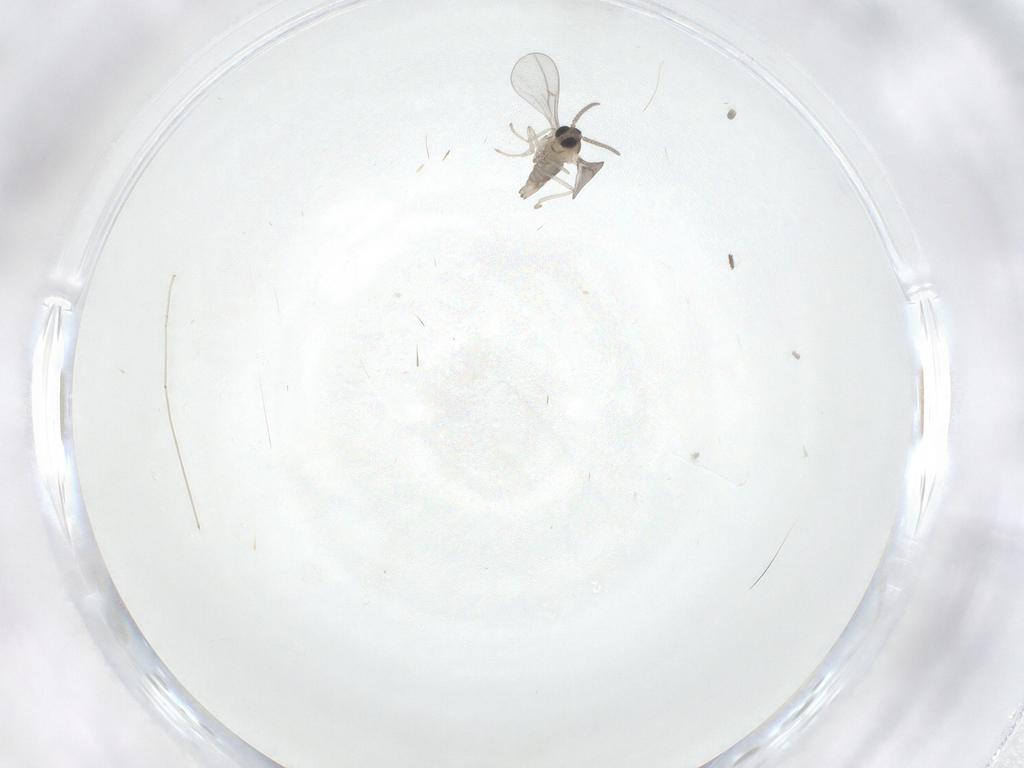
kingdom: Animalia
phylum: Arthropoda
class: Insecta
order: Diptera
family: Cecidomyiidae
